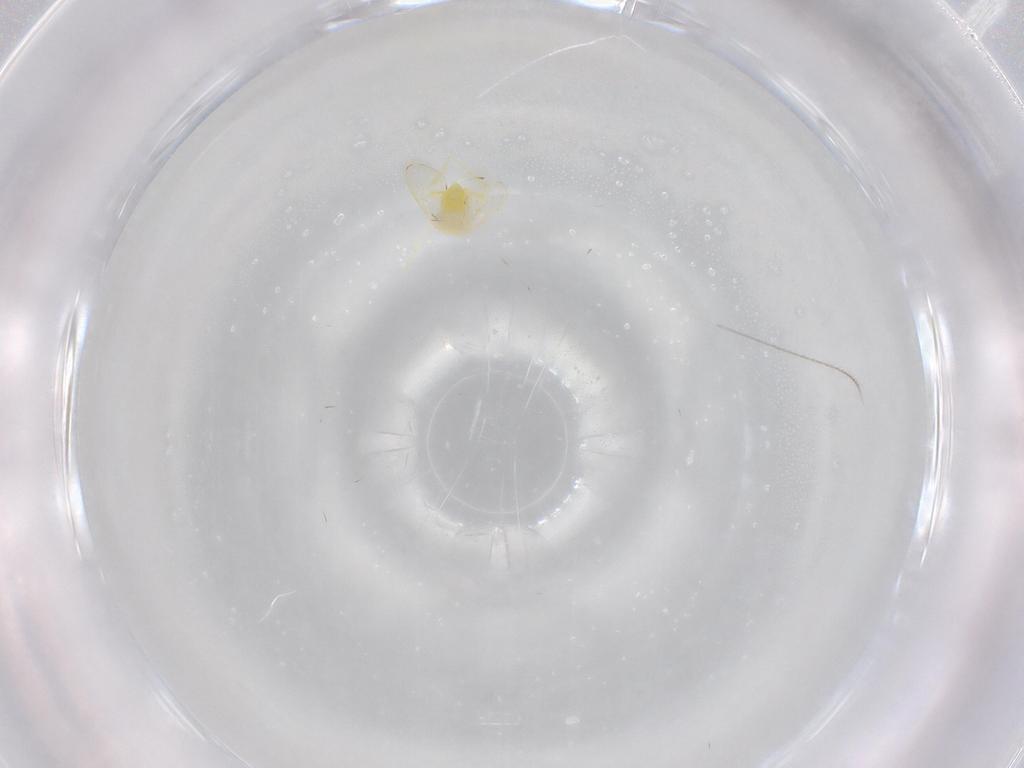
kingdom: Animalia
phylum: Arthropoda
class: Insecta
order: Hemiptera
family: Aleyrodidae
